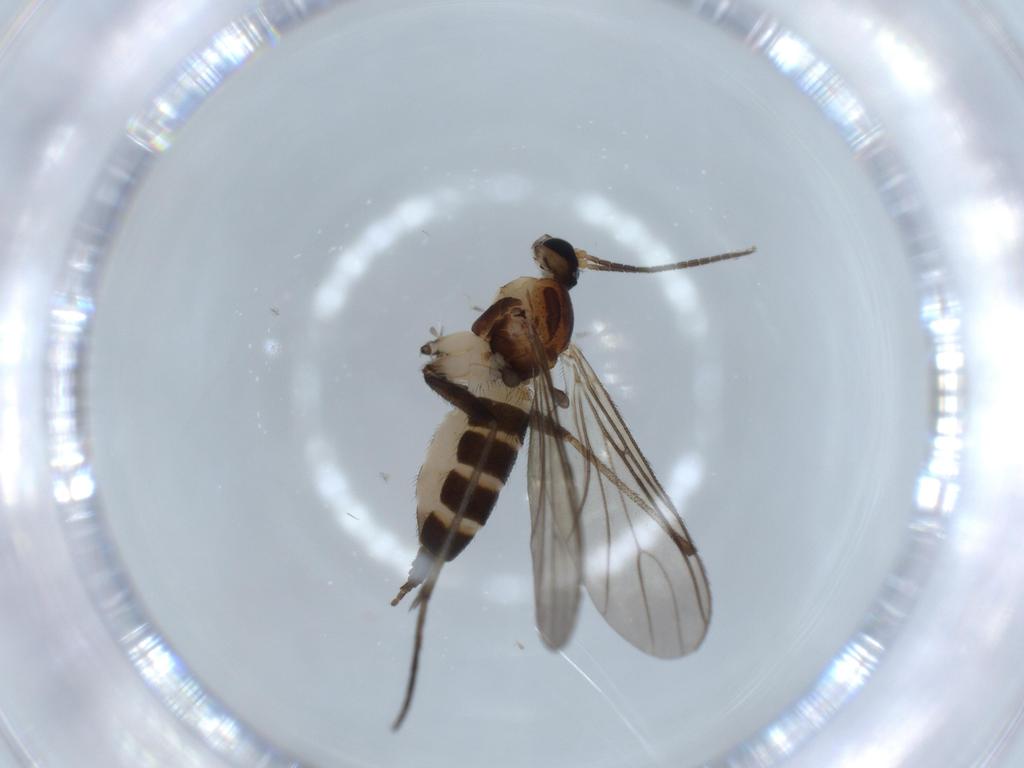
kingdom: Animalia
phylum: Arthropoda
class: Insecta
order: Diptera
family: Sciaridae
